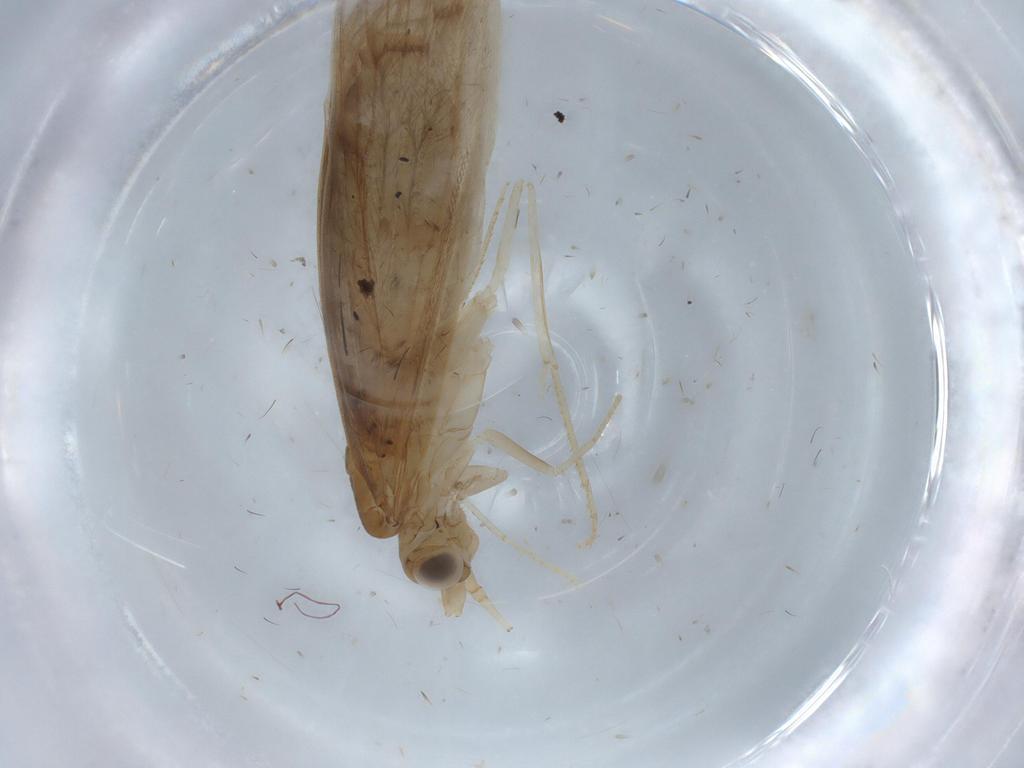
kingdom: Animalia
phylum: Arthropoda
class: Insecta
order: Trichoptera
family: Leptoceridae
